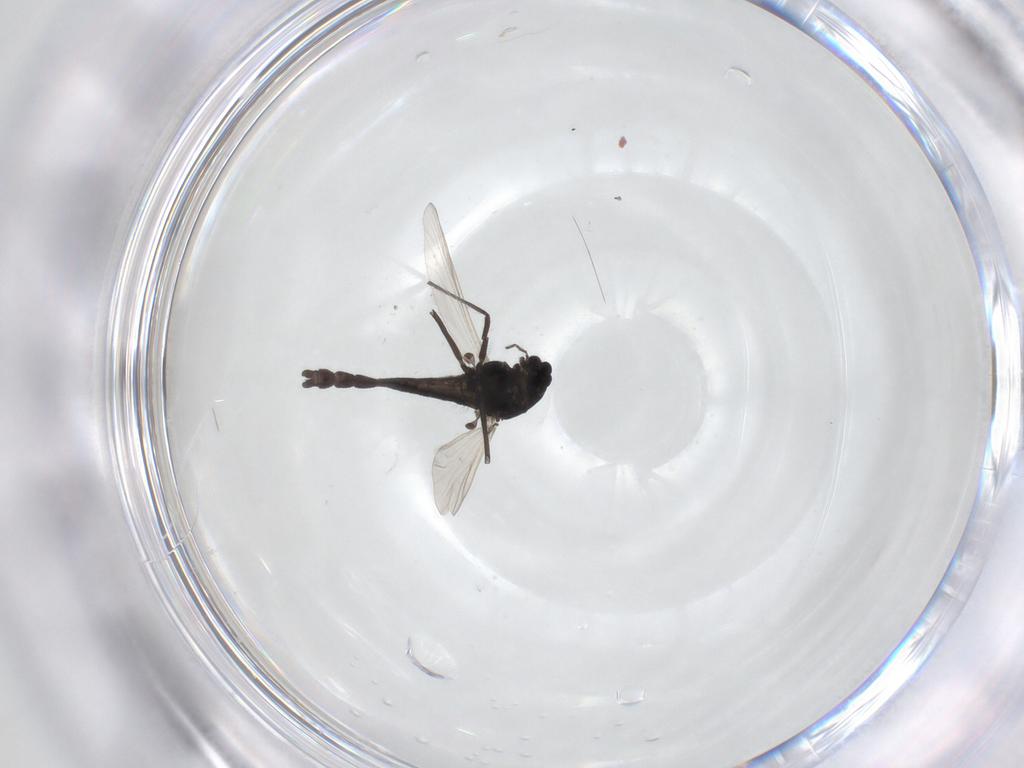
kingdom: Animalia
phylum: Arthropoda
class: Insecta
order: Diptera
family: Chironomidae
